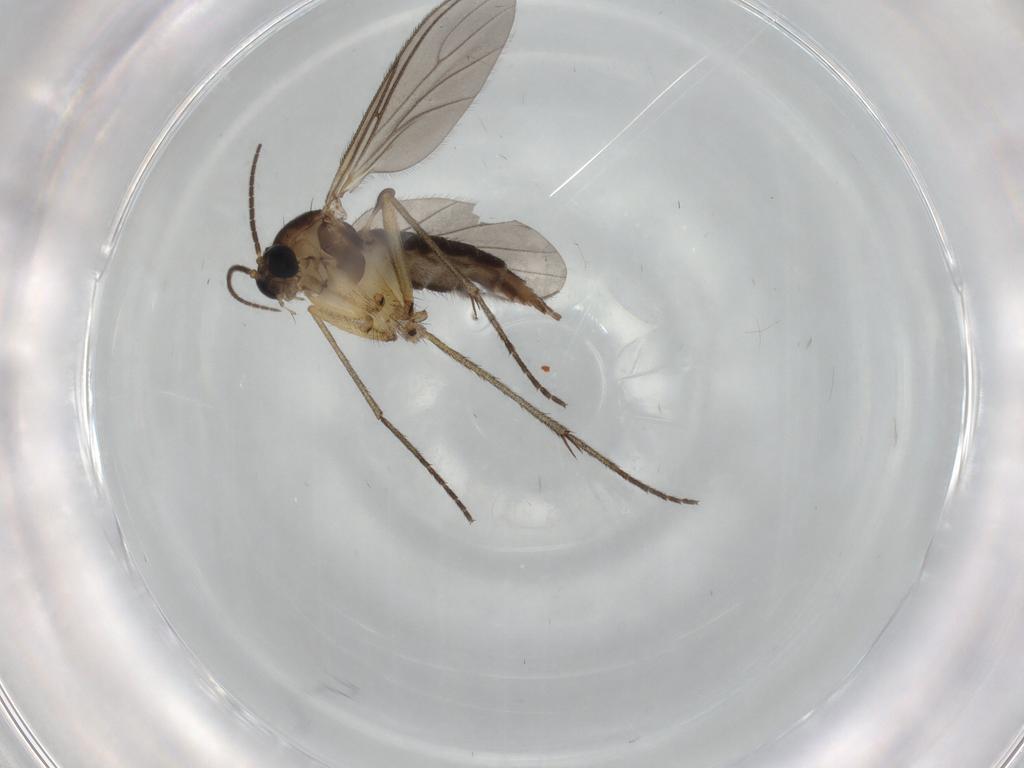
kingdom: Animalia
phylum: Arthropoda
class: Insecta
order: Diptera
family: Sciaridae
